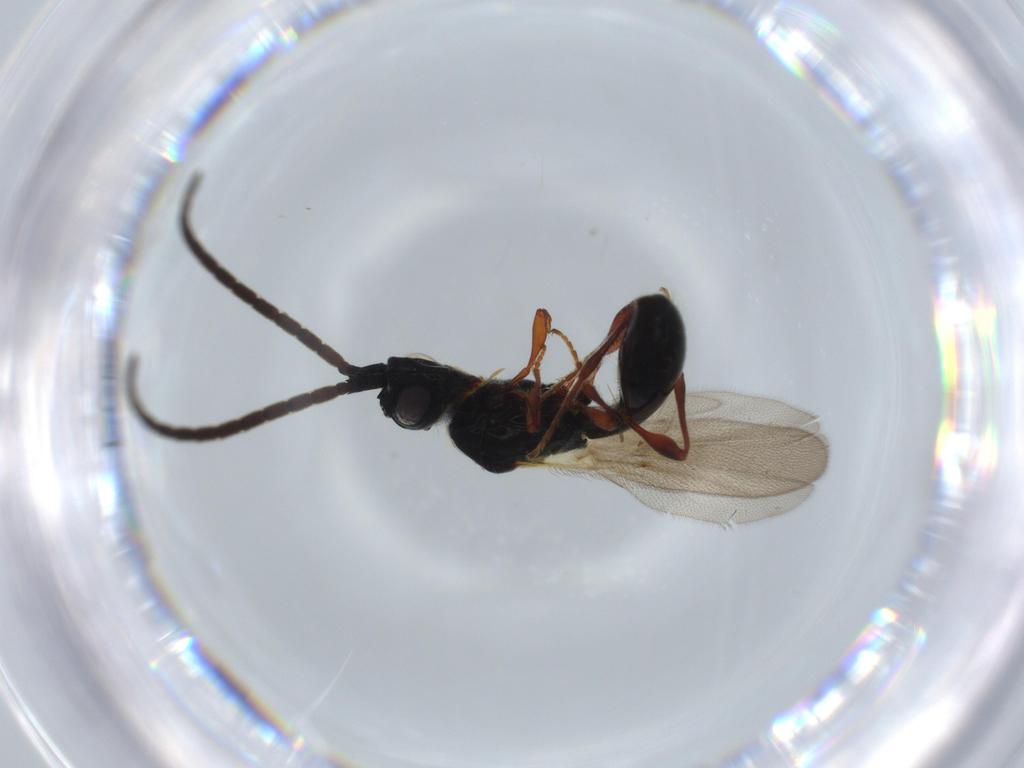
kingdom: Animalia
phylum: Arthropoda
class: Insecta
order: Hymenoptera
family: Diapriidae
